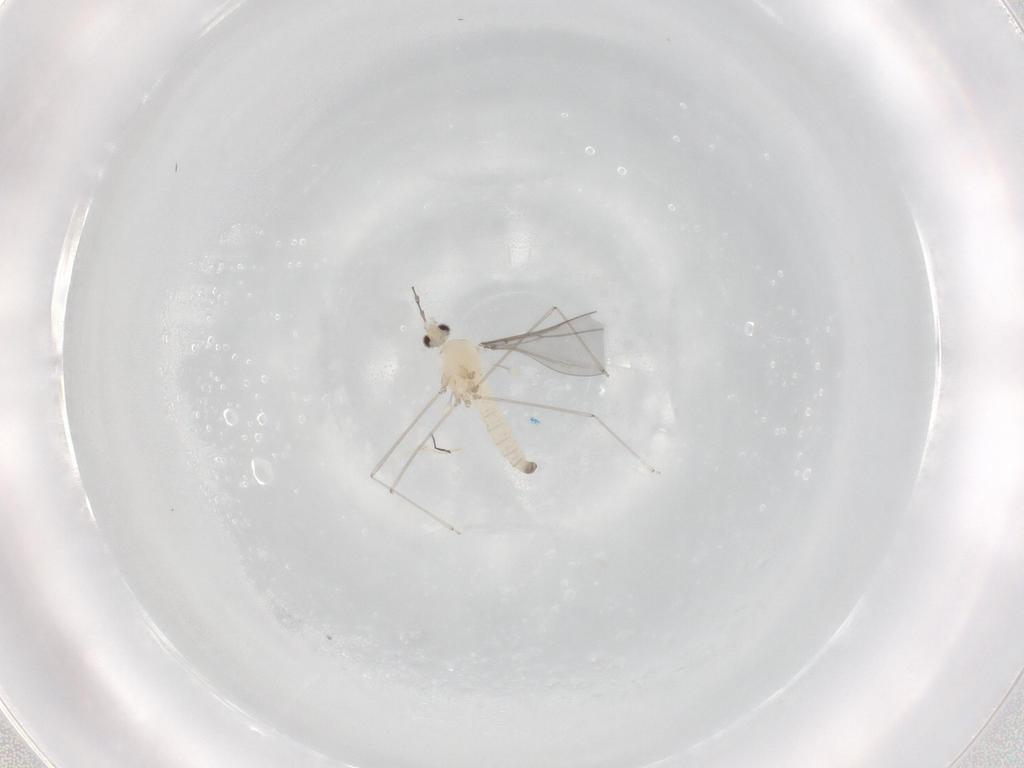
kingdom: Animalia
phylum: Arthropoda
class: Insecta
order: Diptera
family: Cecidomyiidae
